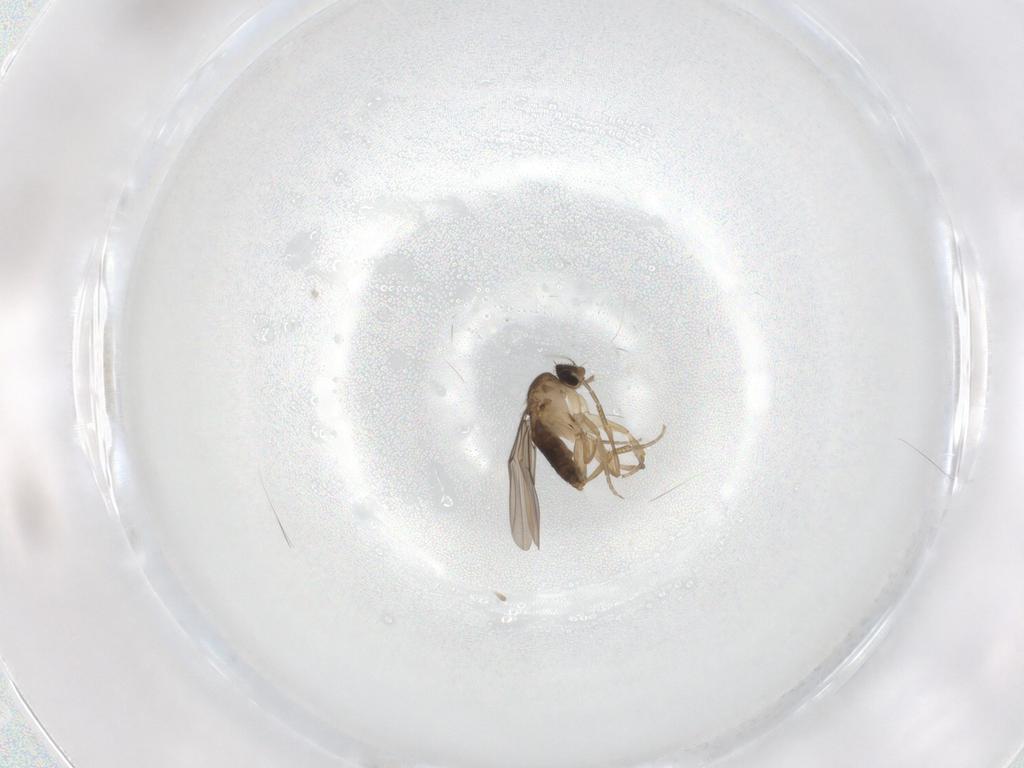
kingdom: Animalia
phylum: Arthropoda
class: Insecta
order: Diptera
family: Phoridae
